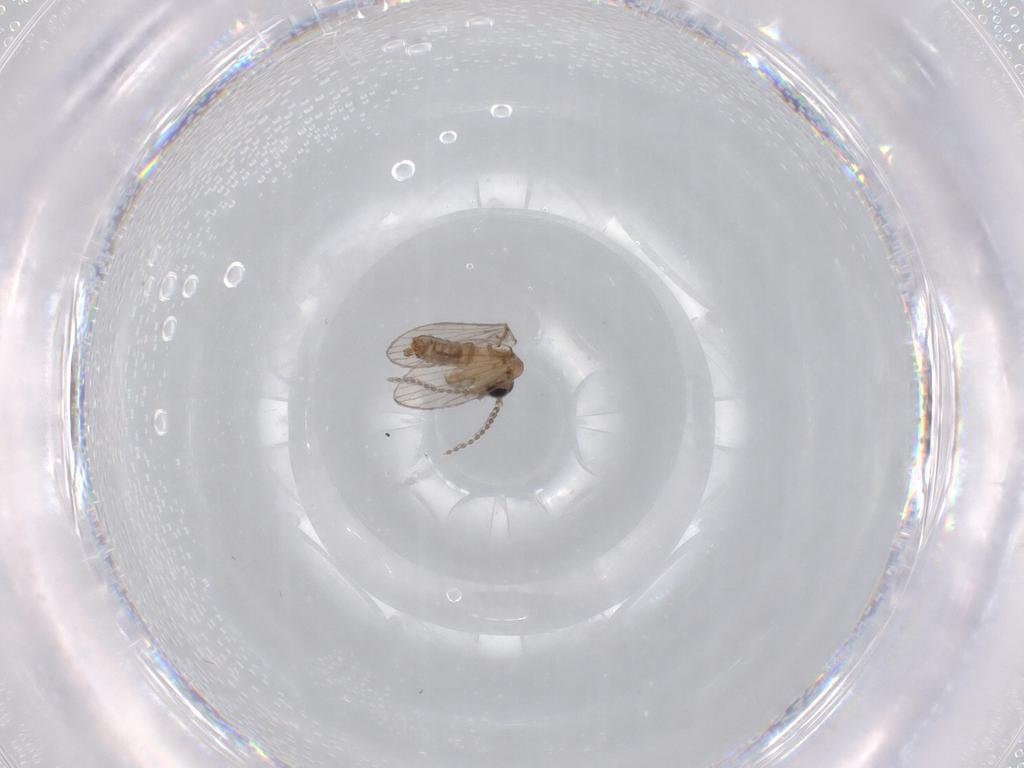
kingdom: Animalia
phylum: Arthropoda
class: Insecta
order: Diptera
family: Psychodidae
